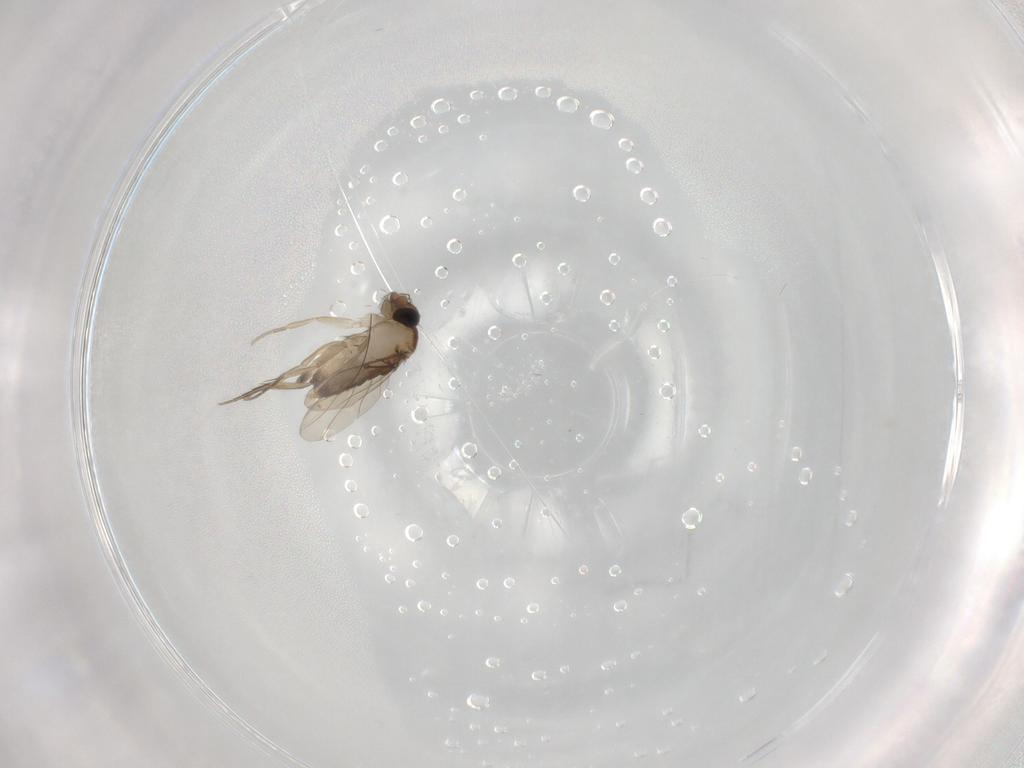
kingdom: Animalia
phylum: Arthropoda
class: Insecta
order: Diptera
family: Phoridae
